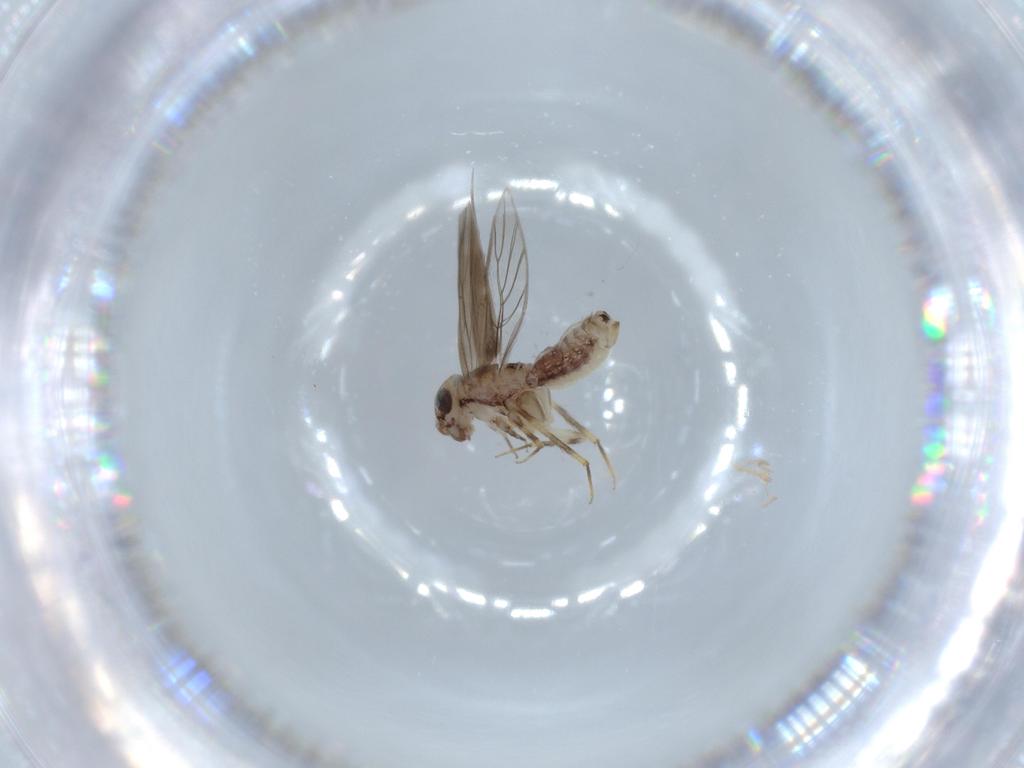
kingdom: Animalia
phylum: Arthropoda
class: Insecta
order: Psocodea
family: Lepidopsocidae
